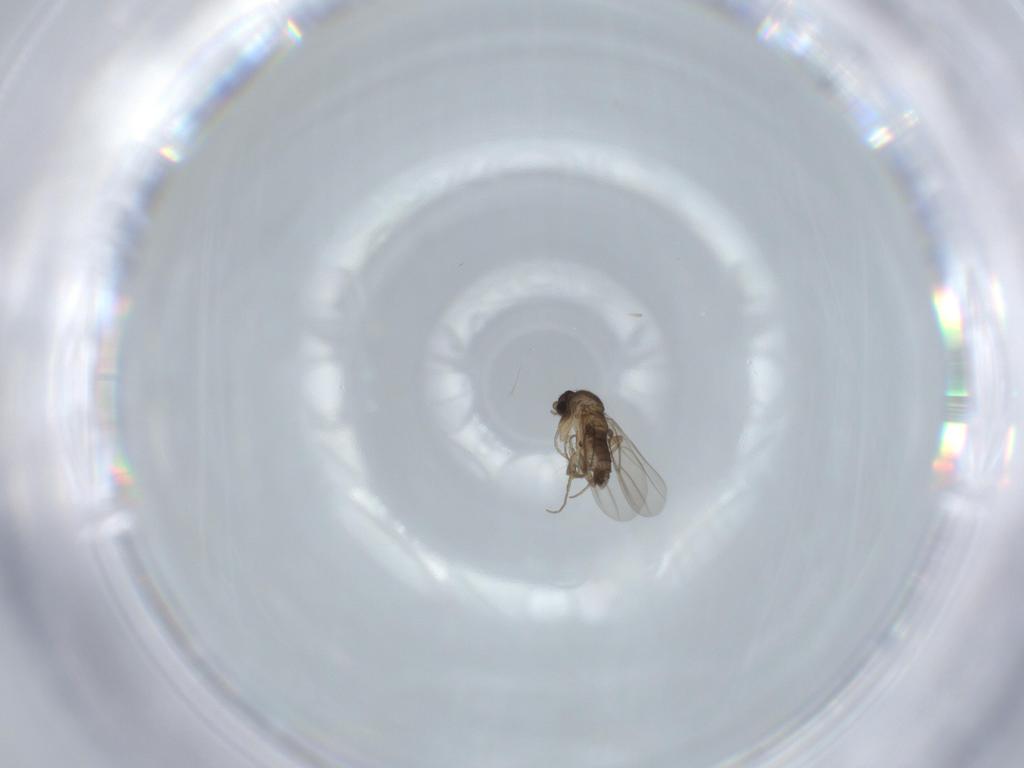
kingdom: Animalia
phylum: Arthropoda
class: Insecta
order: Diptera
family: Phoridae
